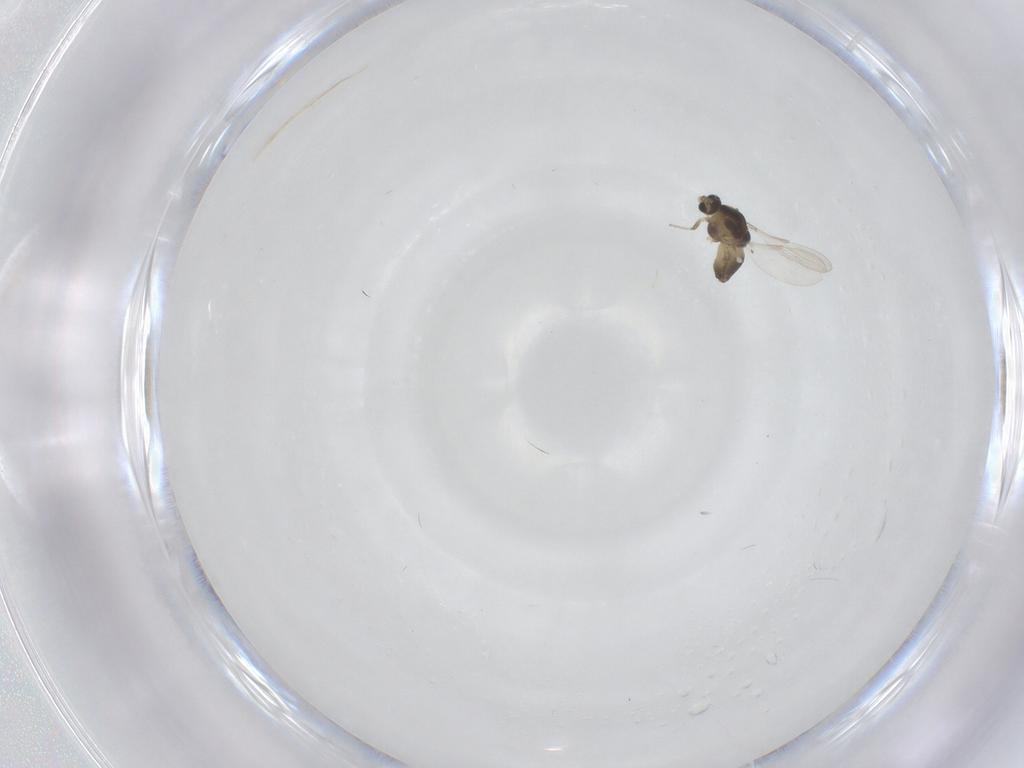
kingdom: Animalia
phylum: Arthropoda
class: Insecta
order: Diptera
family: Chironomidae
